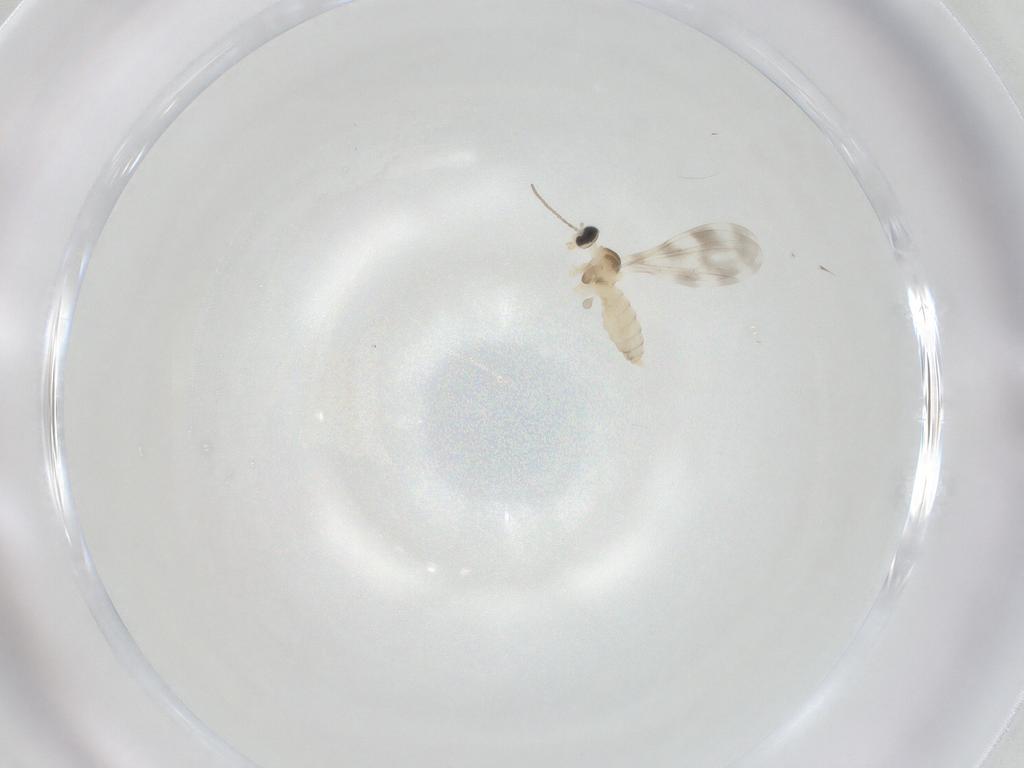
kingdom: Animalia
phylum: Arthropoda
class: Insecta
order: Diptera
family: Cecidomyiidae
